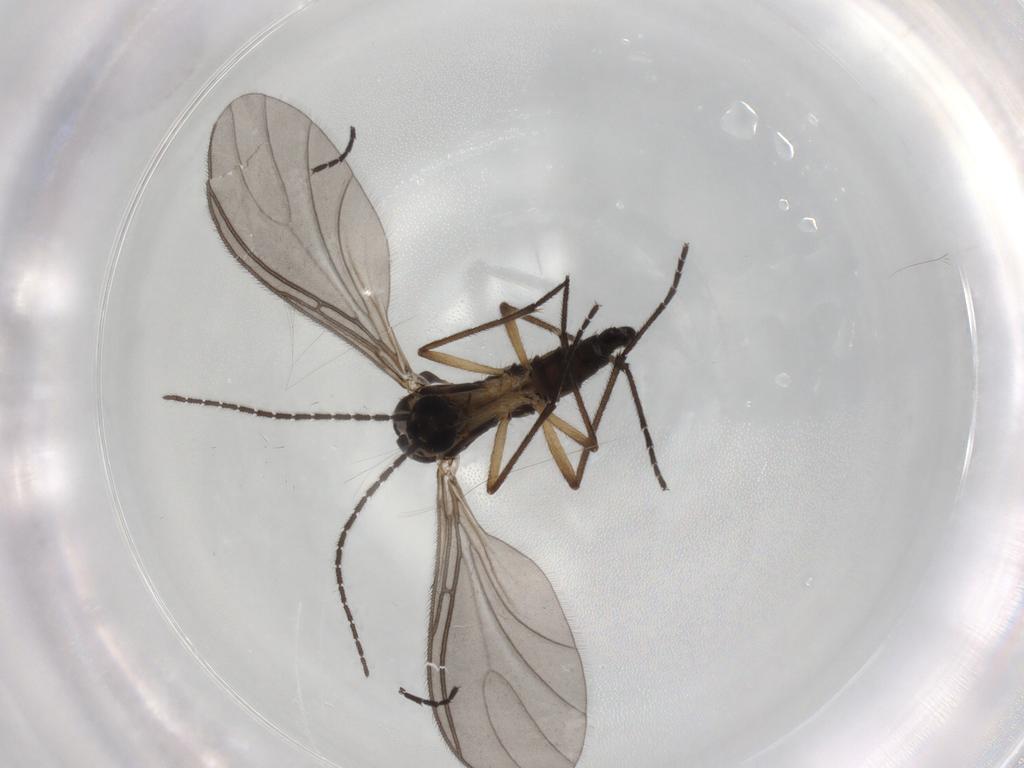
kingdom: Animalia
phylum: Arthropoda
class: Insecta
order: Diptera
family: Sciaridae
